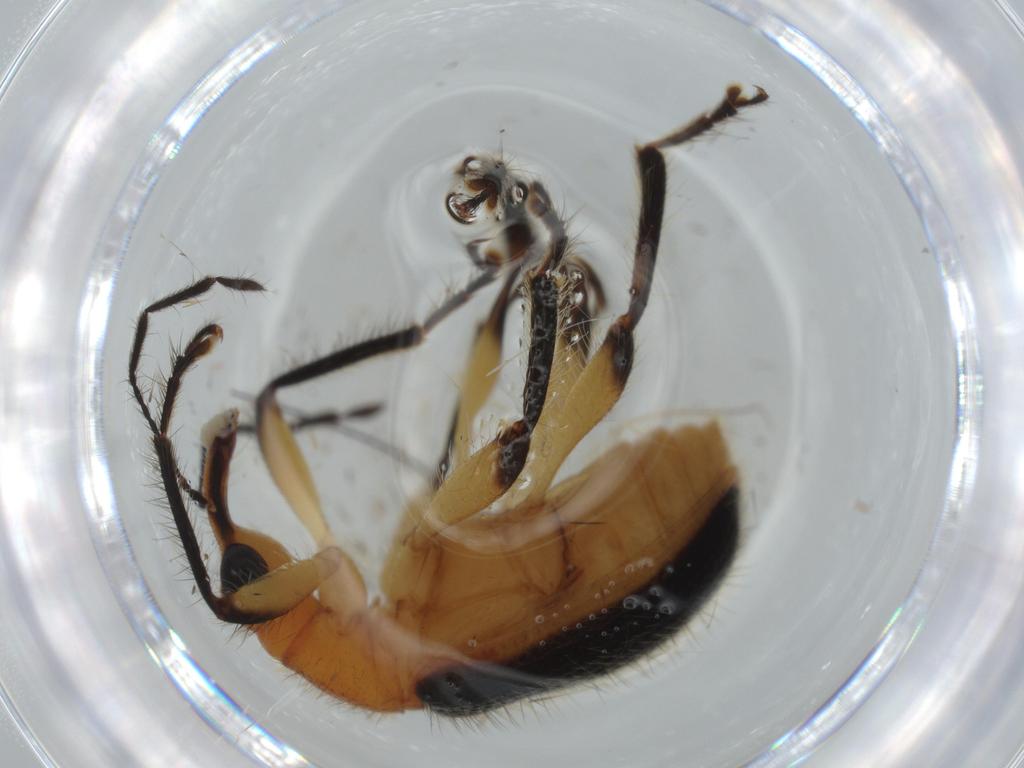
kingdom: Animalia
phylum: Arthropoda
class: Insecta
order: Coleoptera
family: Attelabidae
